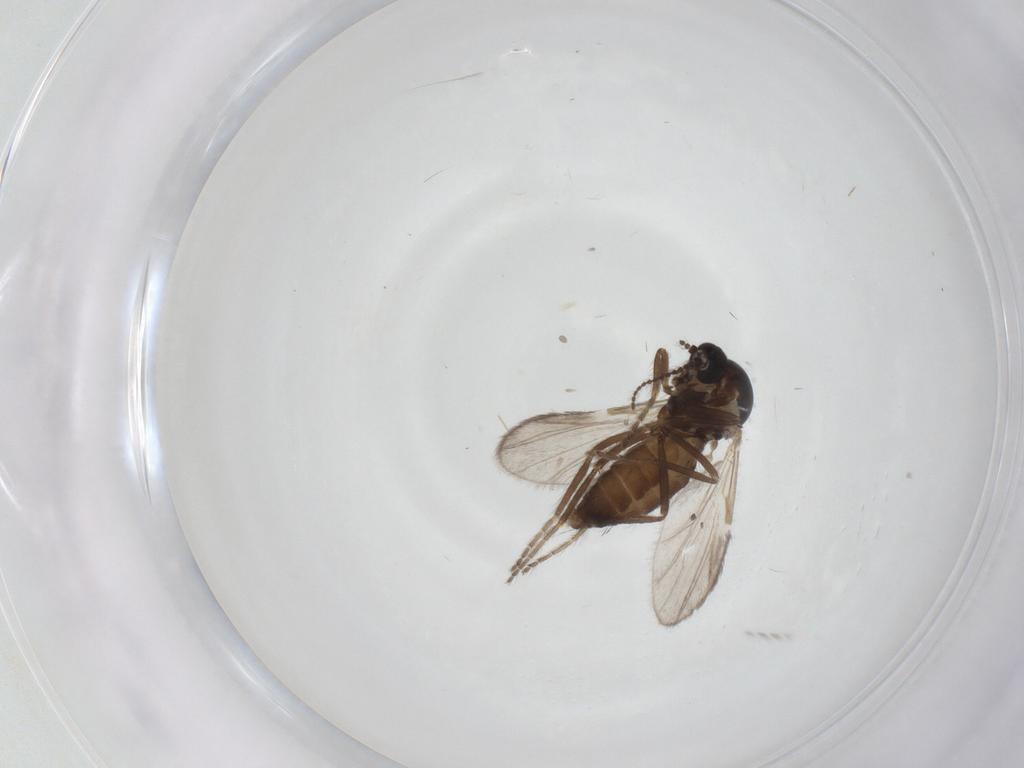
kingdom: Animalia
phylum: Arthropoda
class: Insecta
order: Diptera
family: Ceratopogonidae
